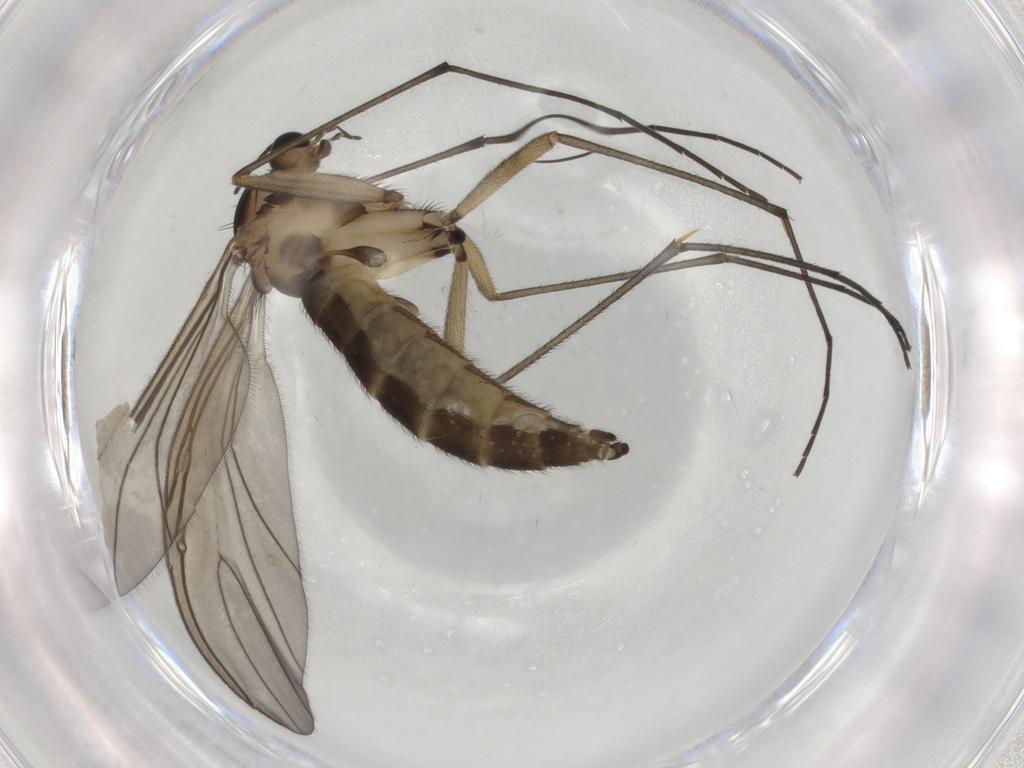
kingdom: Animalia
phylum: Arthropoda
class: Insecta
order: Diptera
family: Sciaridae
